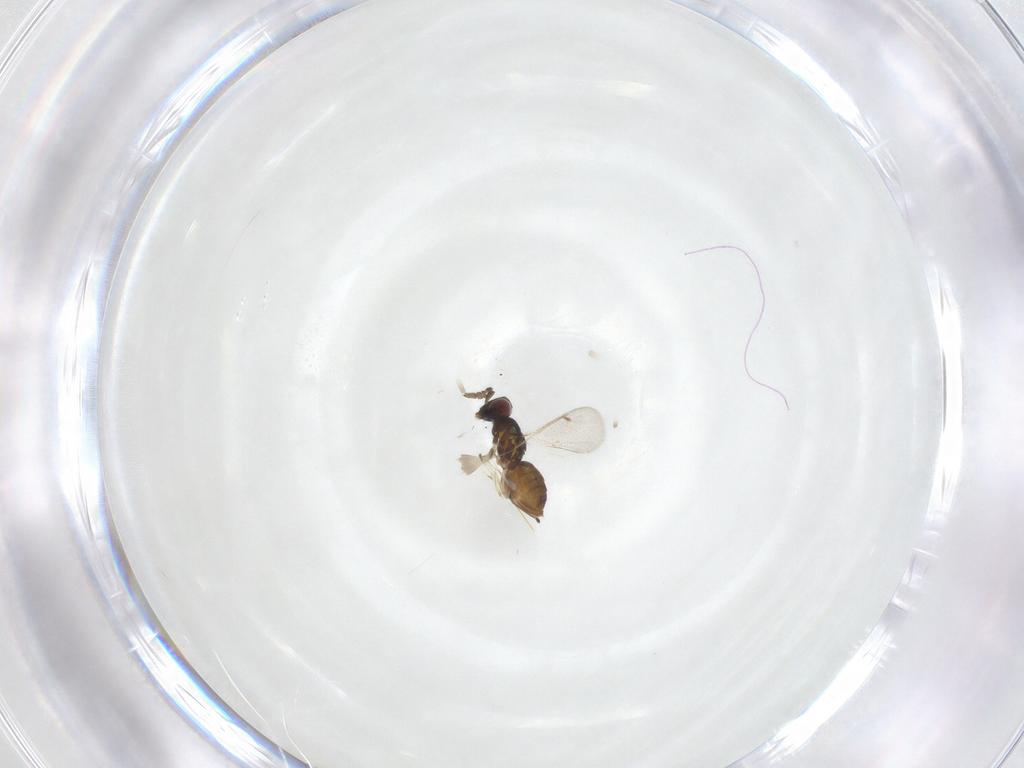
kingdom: Animalia
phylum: Arthropoda
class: Insecta
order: Hymenoptera
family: Eulophidae
